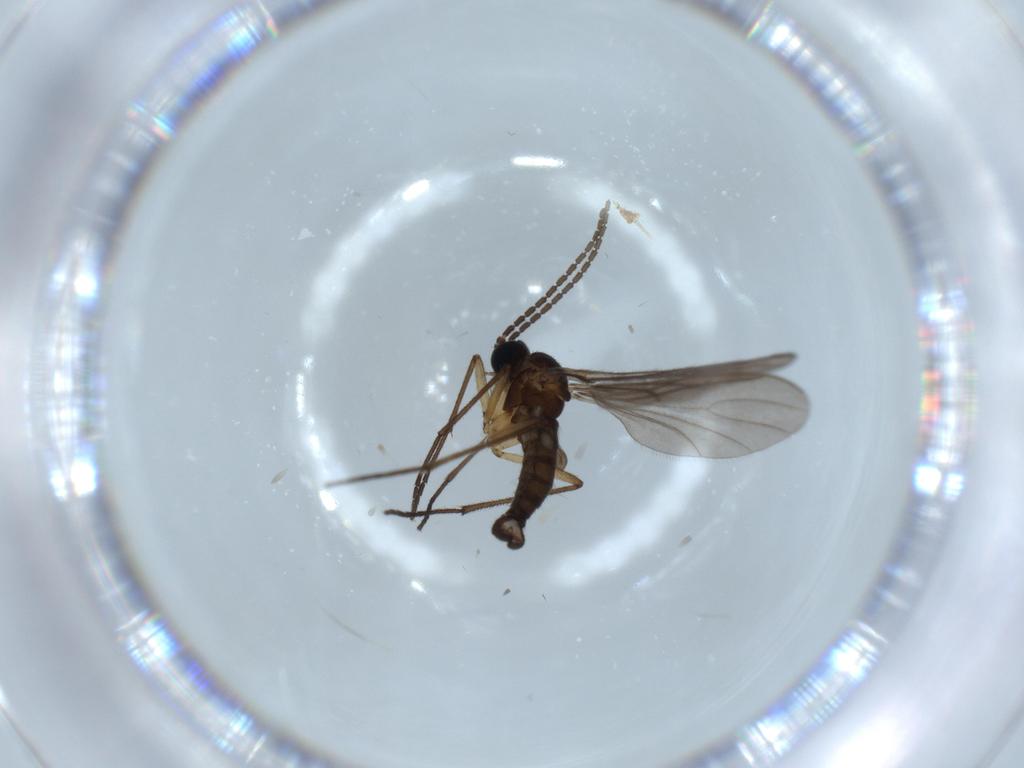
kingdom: Animalia
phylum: Arthropoda
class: Insecta
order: Diptera
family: Sciaridae
